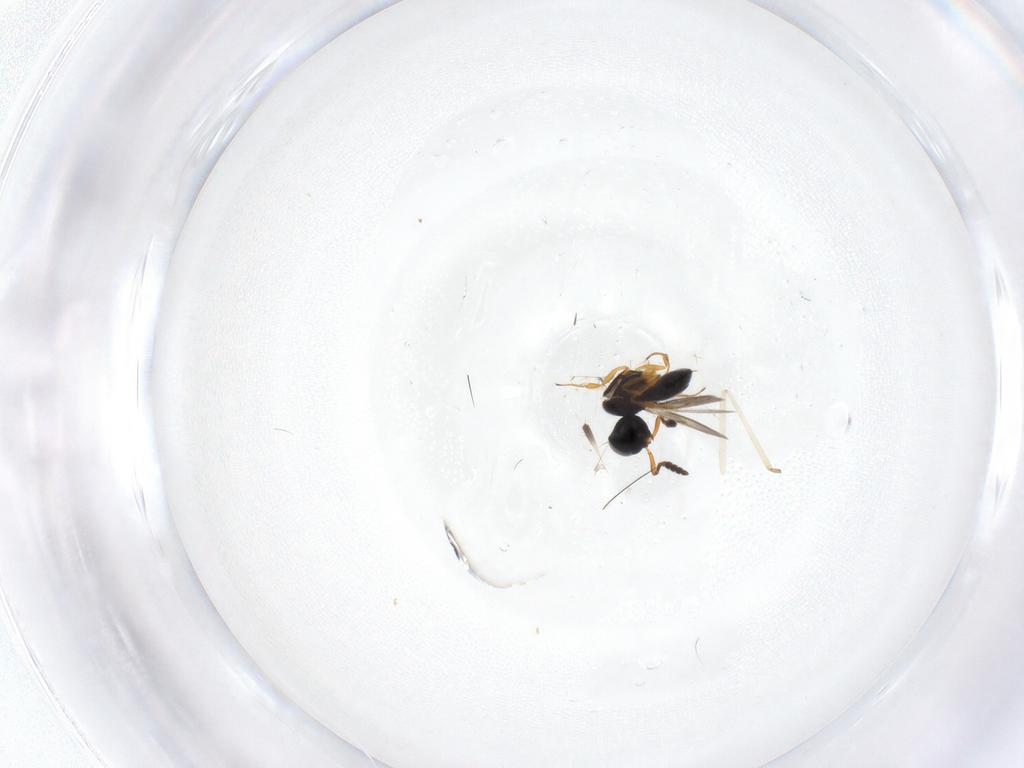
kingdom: Animalia
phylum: Arthropoda
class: Insecta
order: Hymenoptera
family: Scelionidae
